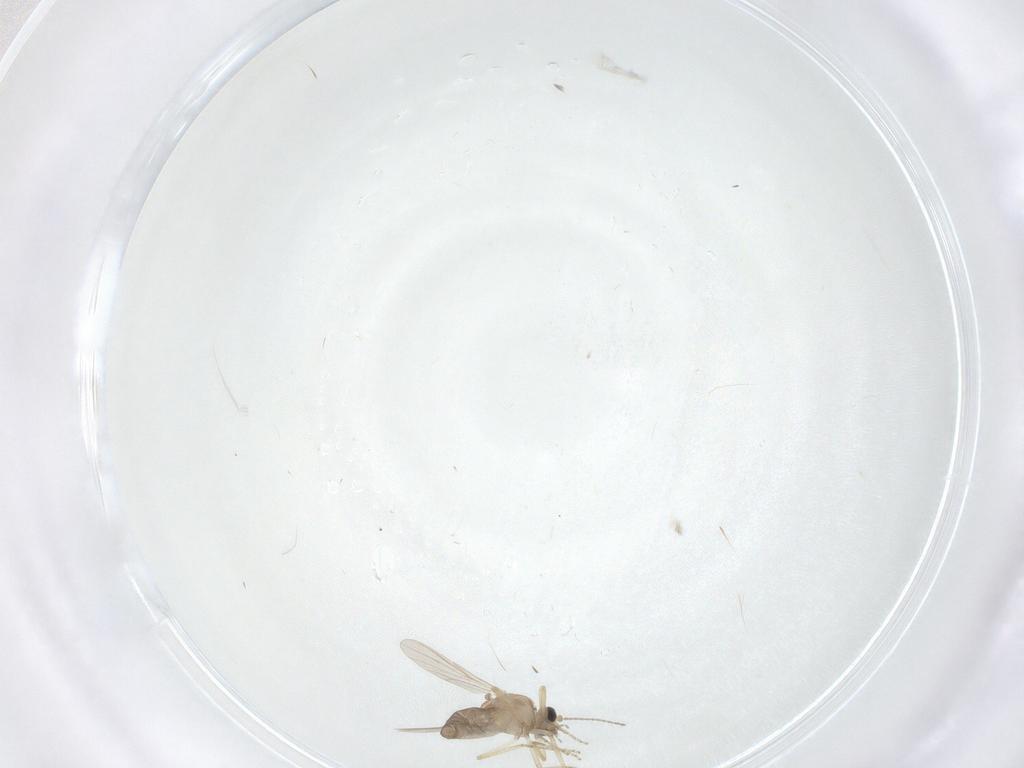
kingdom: Animalia
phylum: Arthropoda
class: Insecta
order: Diptera
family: Ceratopogonidae
